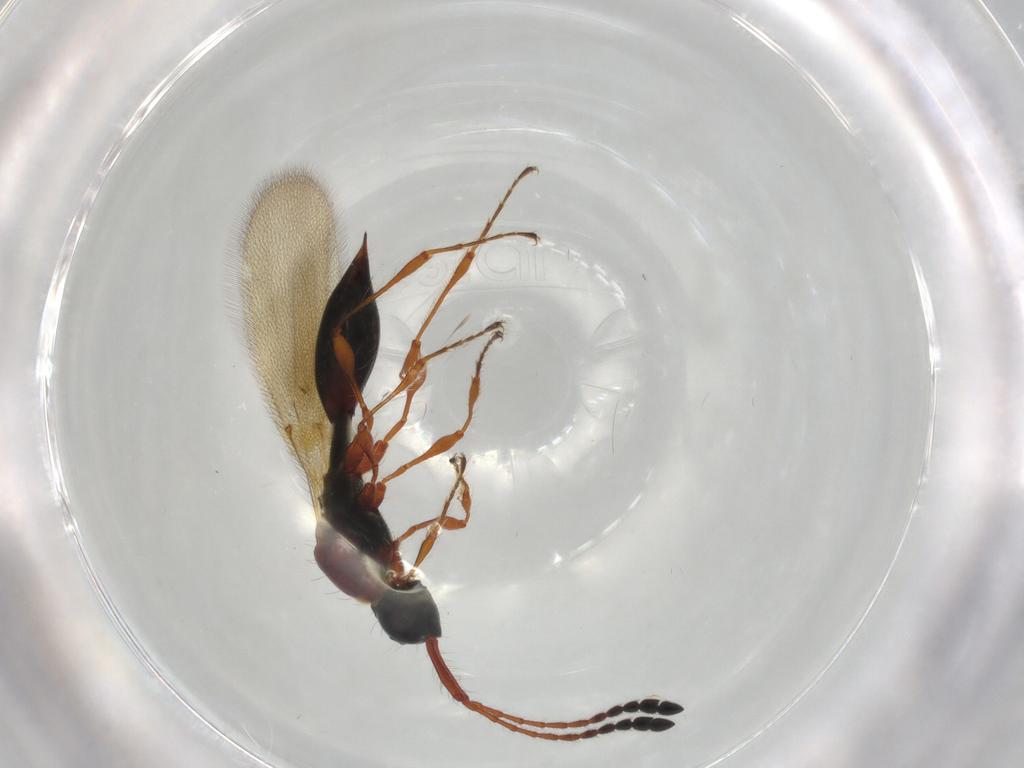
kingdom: Animalia
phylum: Arthropoda
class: Insecta
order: Hymenoptera
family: Diapriidae
